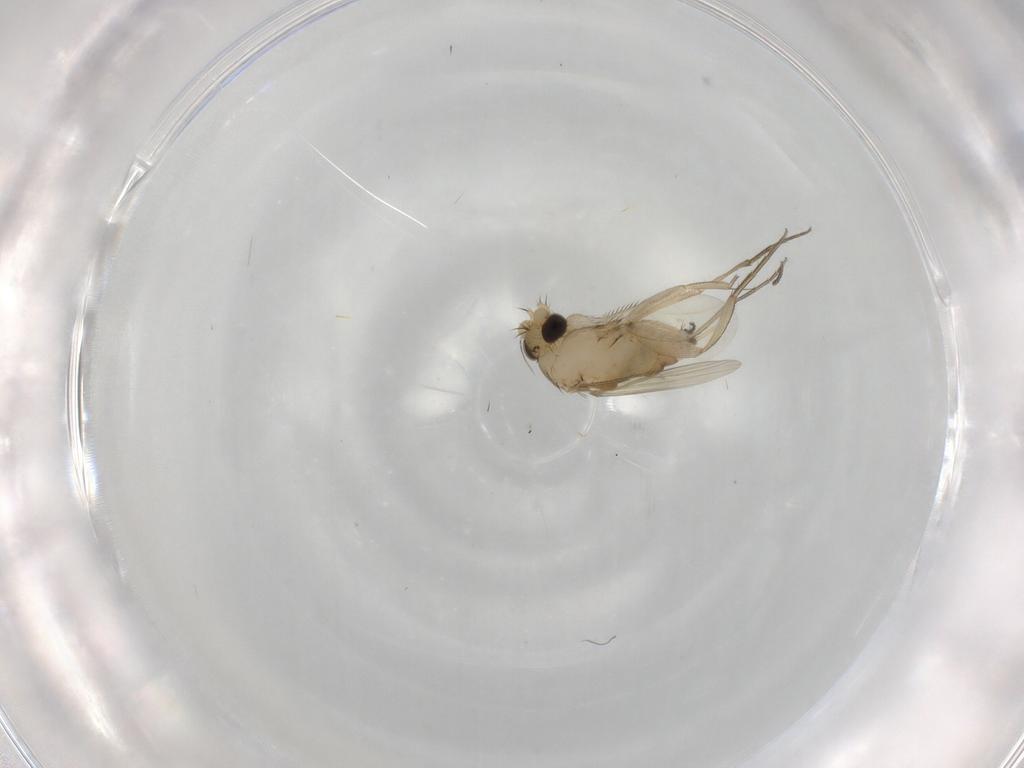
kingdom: Animalia
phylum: Arthropoda
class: Insecta
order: Diptera
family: Phoridae
